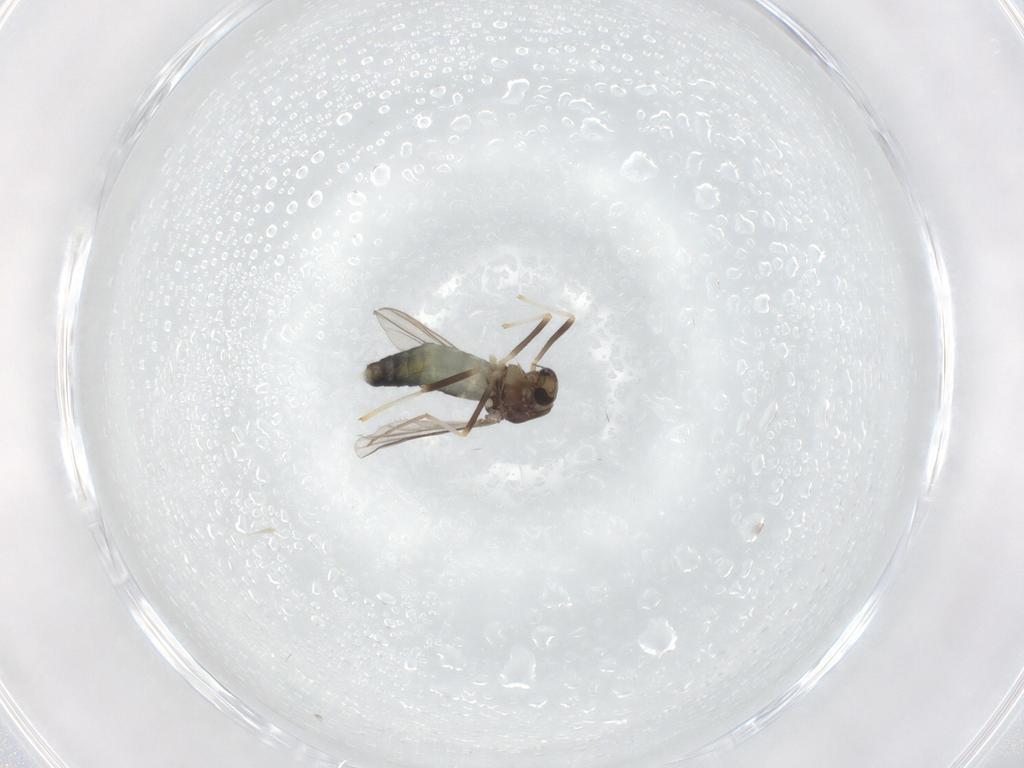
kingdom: Animalia
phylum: Arthropoda
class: Insecta
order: Diptera
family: Chironomidae
